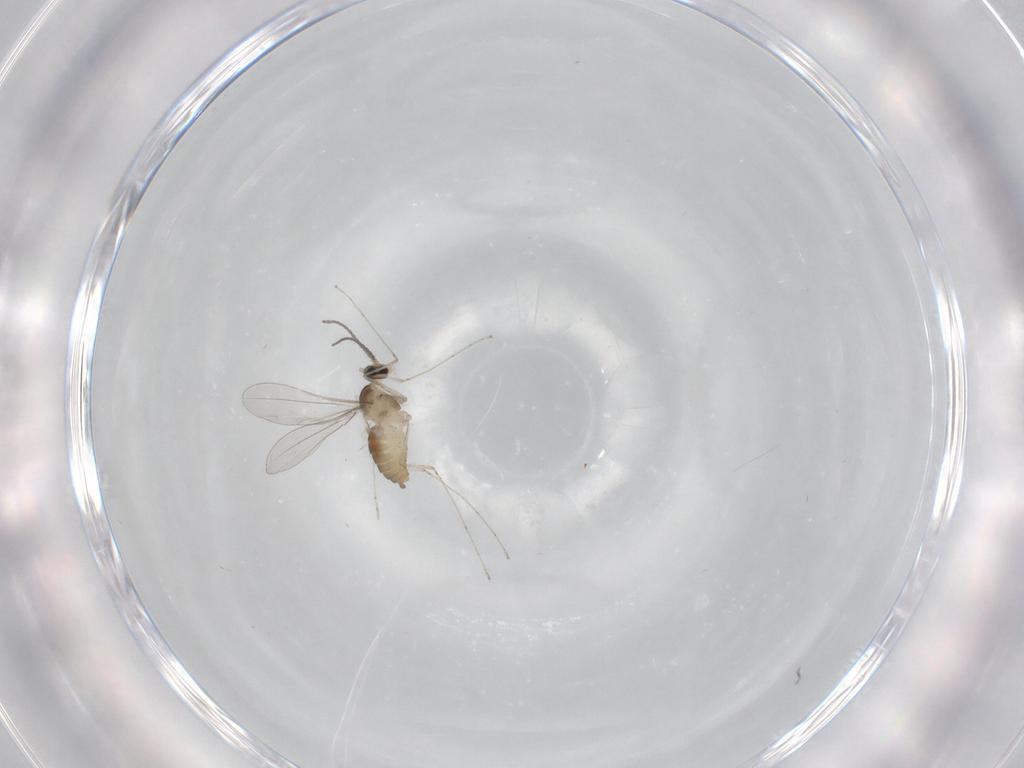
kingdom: Animalia
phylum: Arthropoda
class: Insecta
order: Diptera
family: Cecidomyiidae
